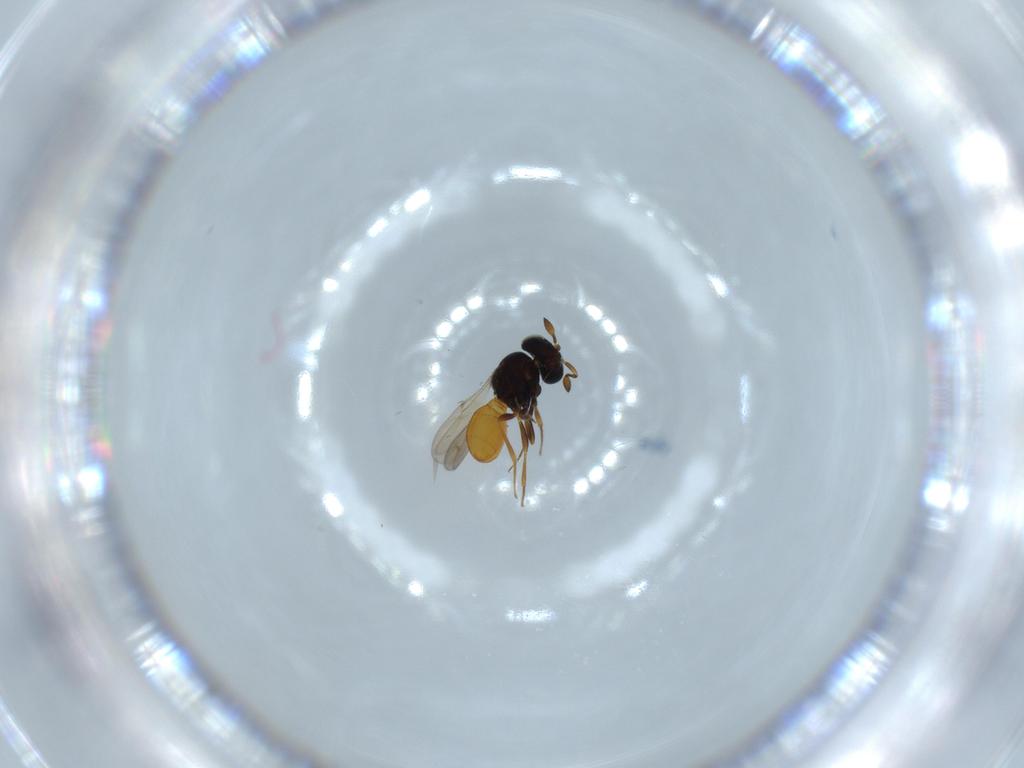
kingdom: Animalia
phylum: Arthropoda
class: Insecta
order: Hymenoptera
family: Scelionidae
